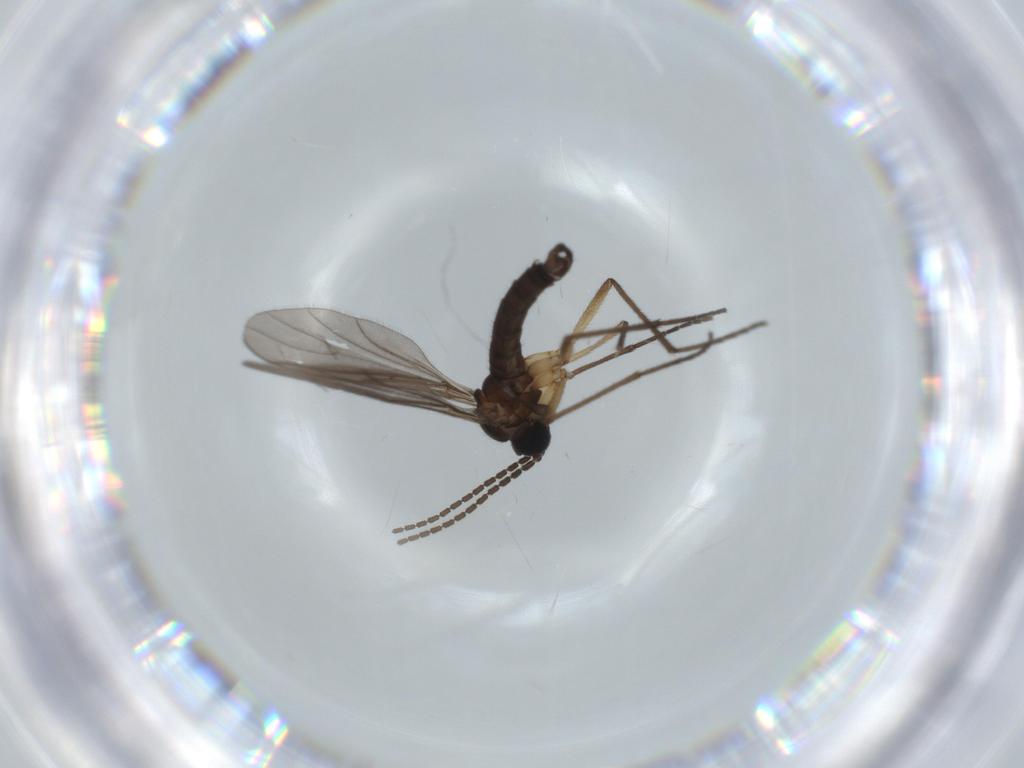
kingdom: Animalia
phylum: Arthropoda
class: Insecta
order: Diptera
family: Sciaridae
